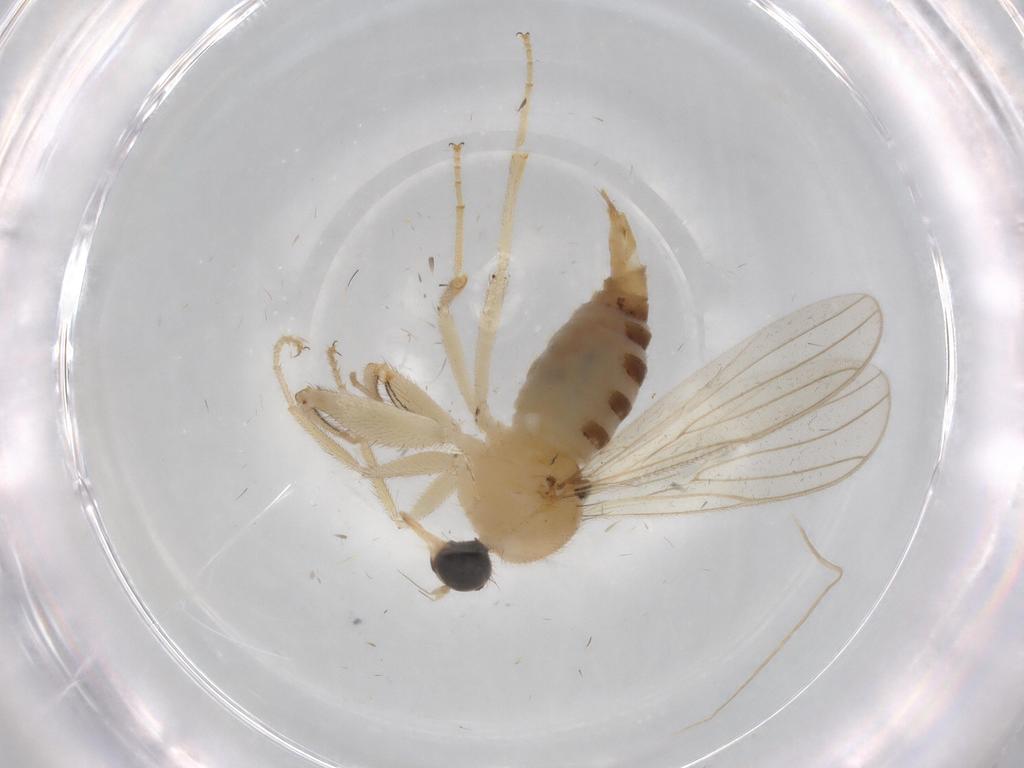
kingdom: Animalia
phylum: Arthropoda
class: Insecta
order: Diptera
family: Hybotidae
